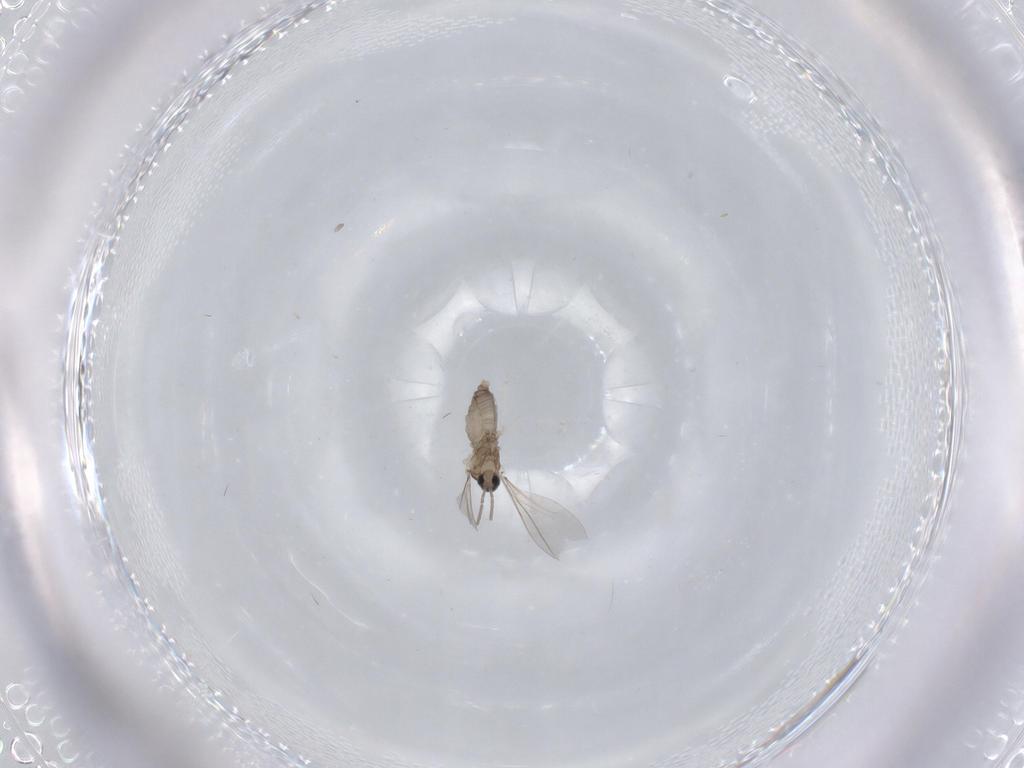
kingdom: Animalia
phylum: Arthropoda
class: Insecta
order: Diptera
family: Cecidomyiidae
